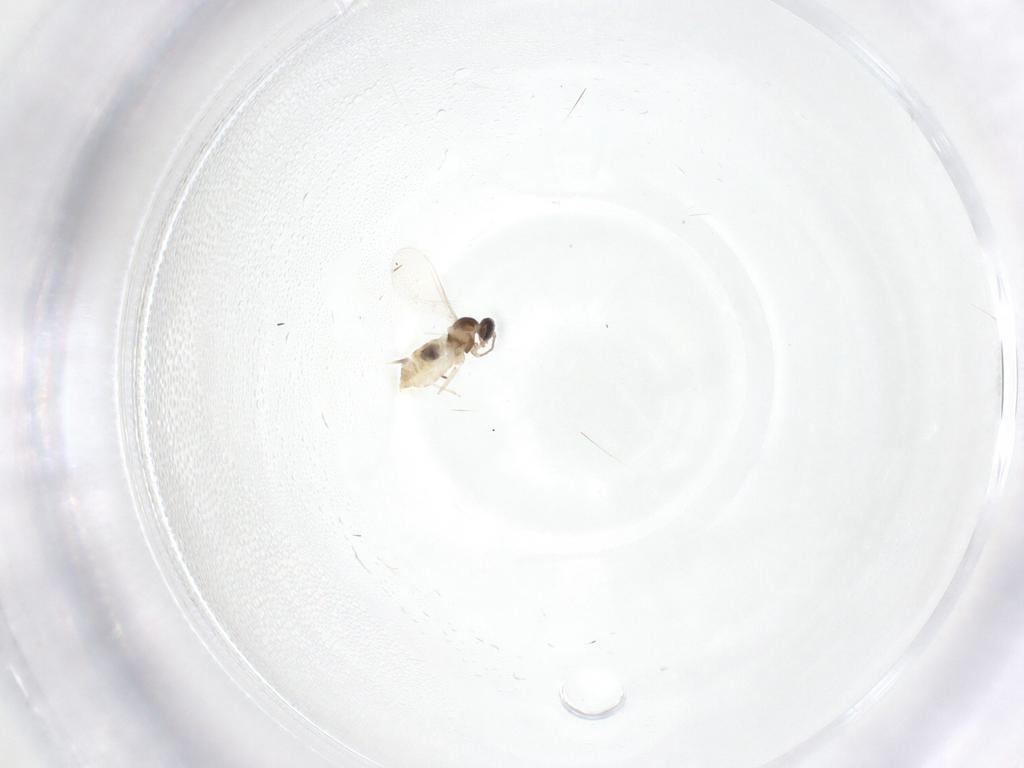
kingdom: Animalia
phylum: Arthropoda
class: Insecta
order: Diptera
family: Cecidomyiidae
